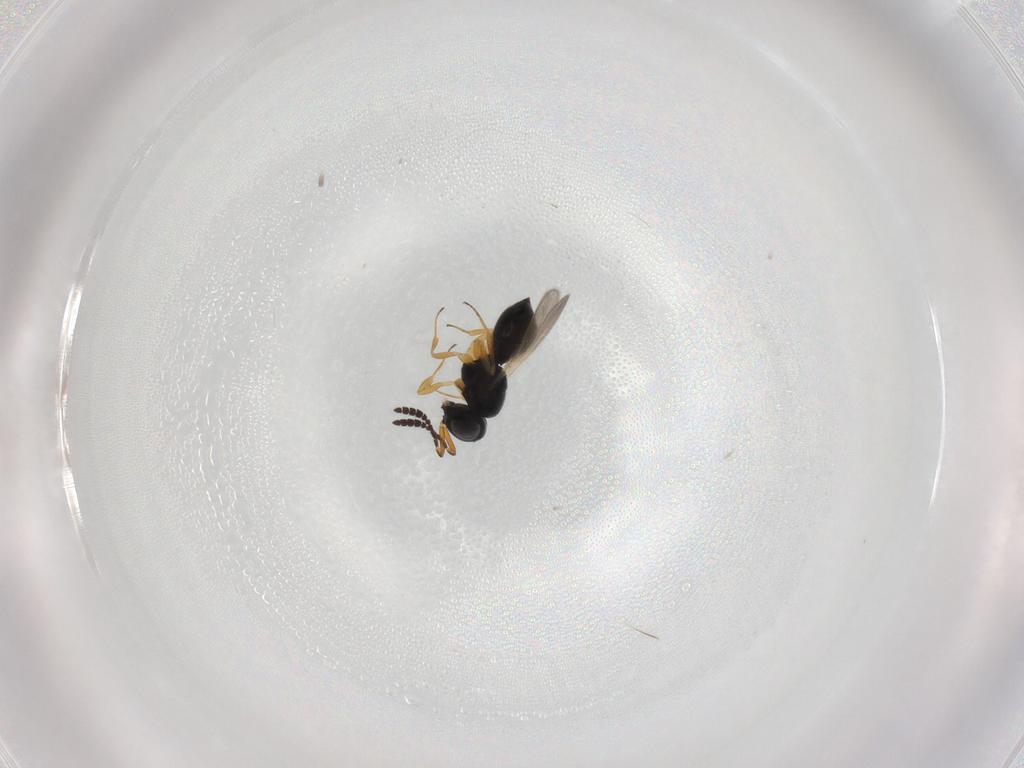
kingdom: Animalia
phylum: Arthropoda
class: Insecta
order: Hymenoptera
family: Scelionidae
